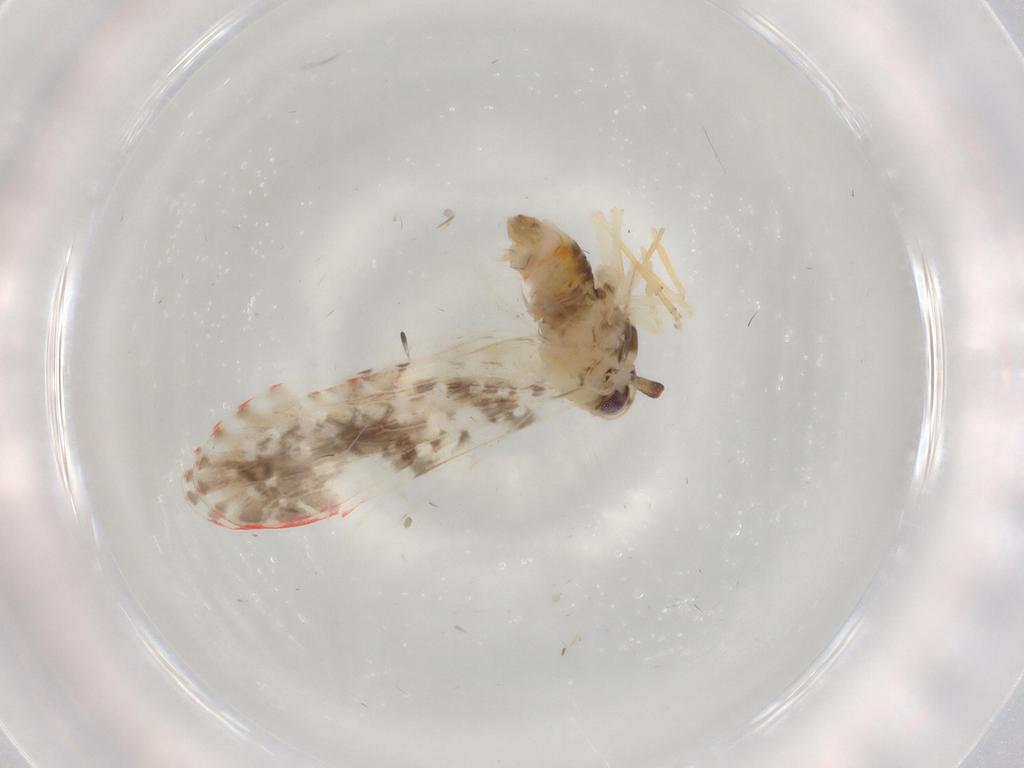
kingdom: Animalia
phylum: Arthropoda
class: Insecta
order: Hemiptera
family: Derbidae
